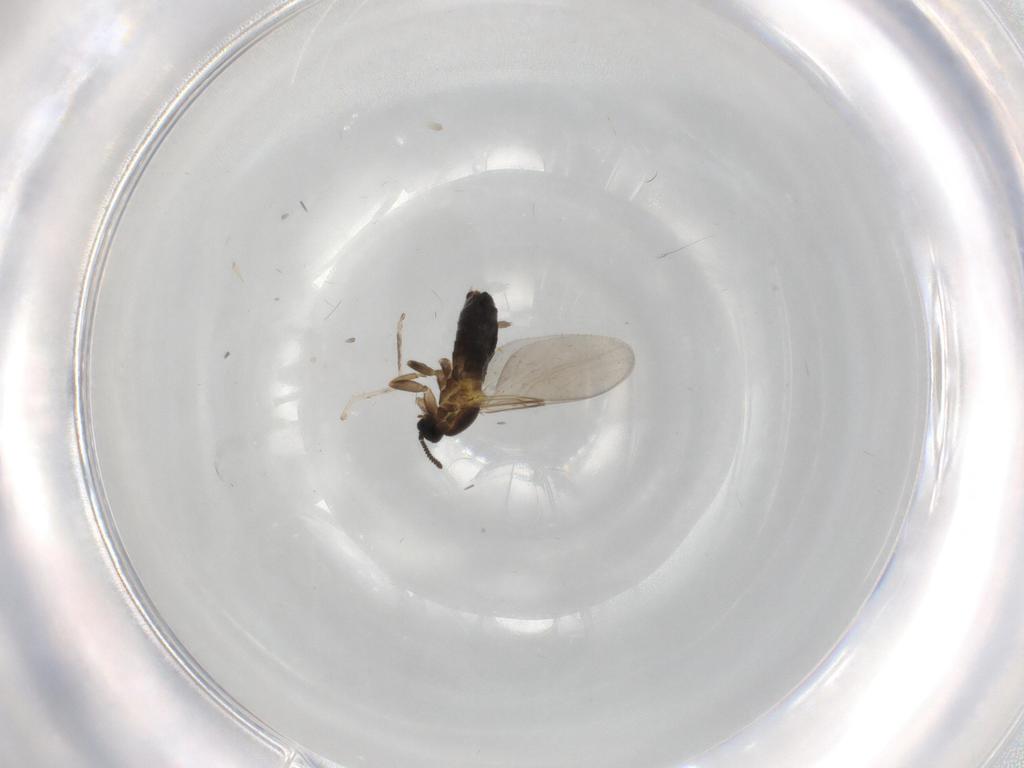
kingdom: Animalia
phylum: Arthropoda
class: Insecta
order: Diptera
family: Scatopsidae
